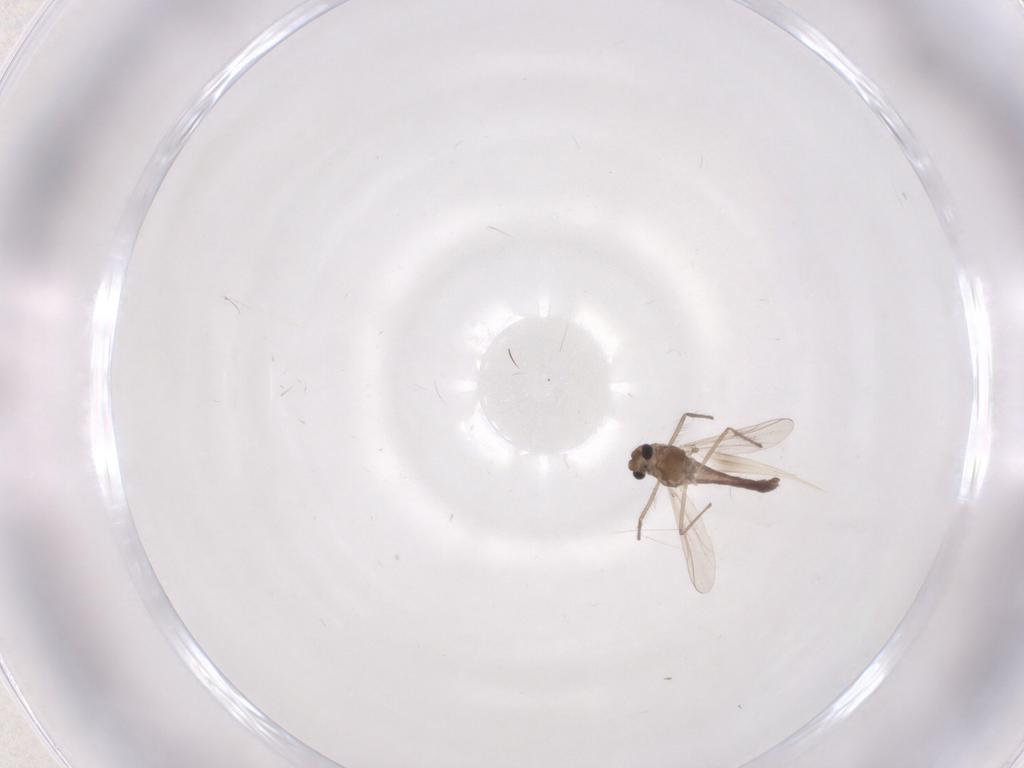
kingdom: Animalia
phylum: Arthropoda
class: Insecta
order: Diptera
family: Chironomidae
